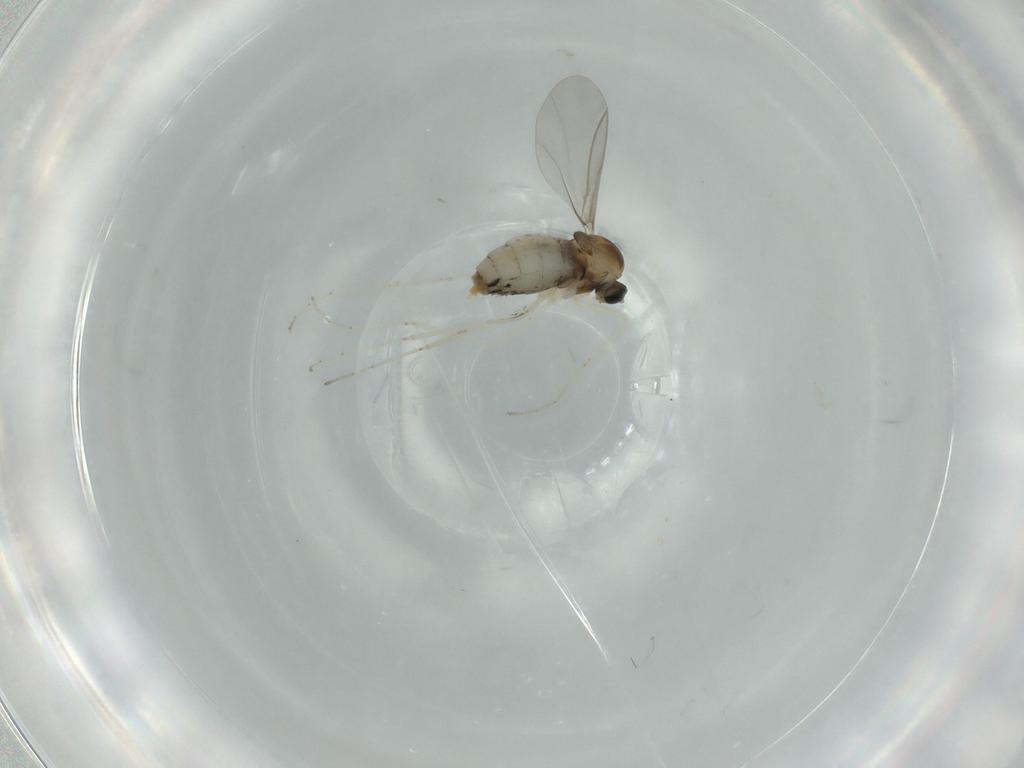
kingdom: Animalia
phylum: Arthropoda
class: Insecta
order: Diptera
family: Cecidomyiidae
